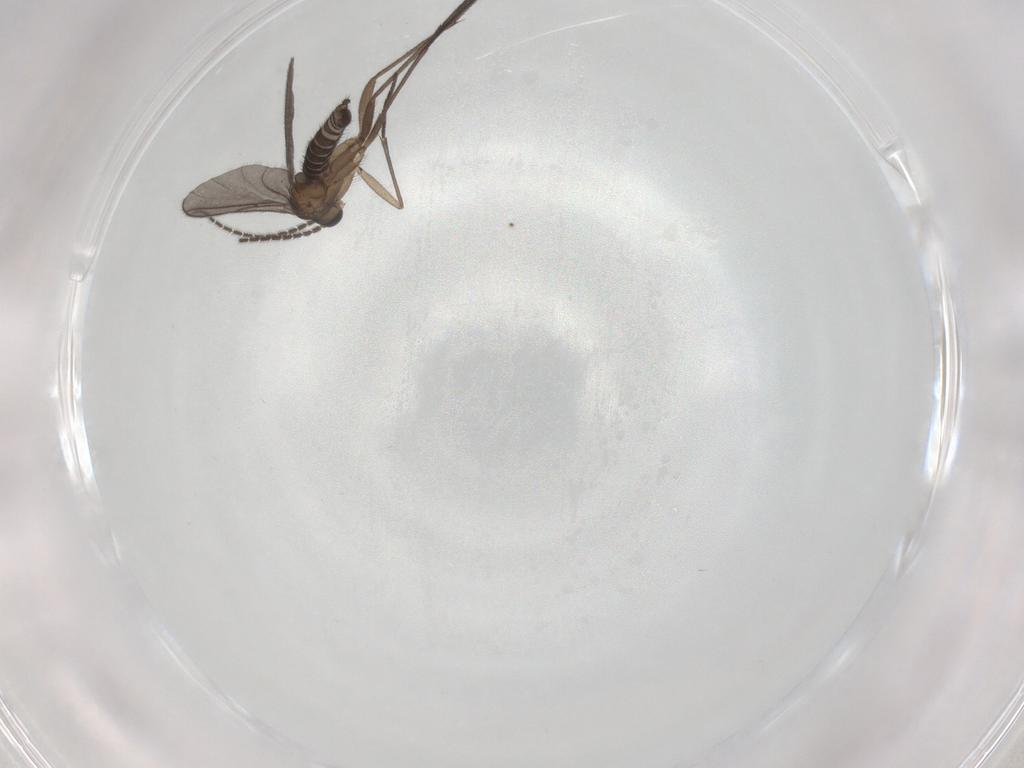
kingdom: Animalia
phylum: Arthropoda
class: Insecta
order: Diptera
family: Sciaridae
